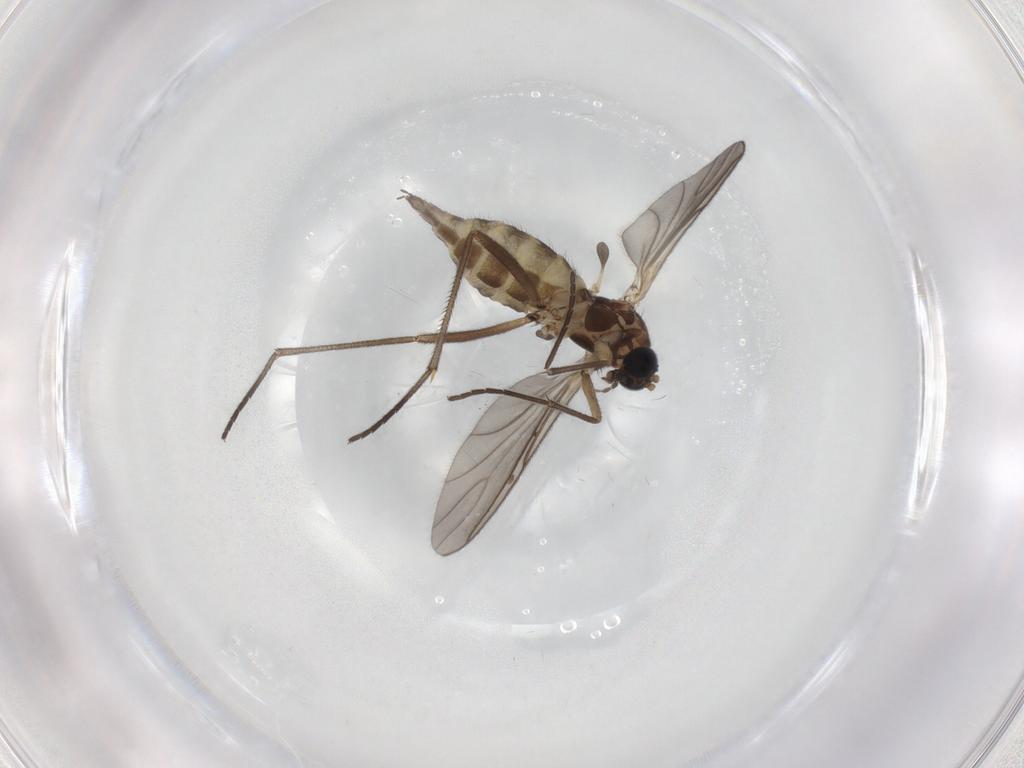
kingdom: Animalia
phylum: Arthropoda
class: Insecta
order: Diptera
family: Sciaridae
